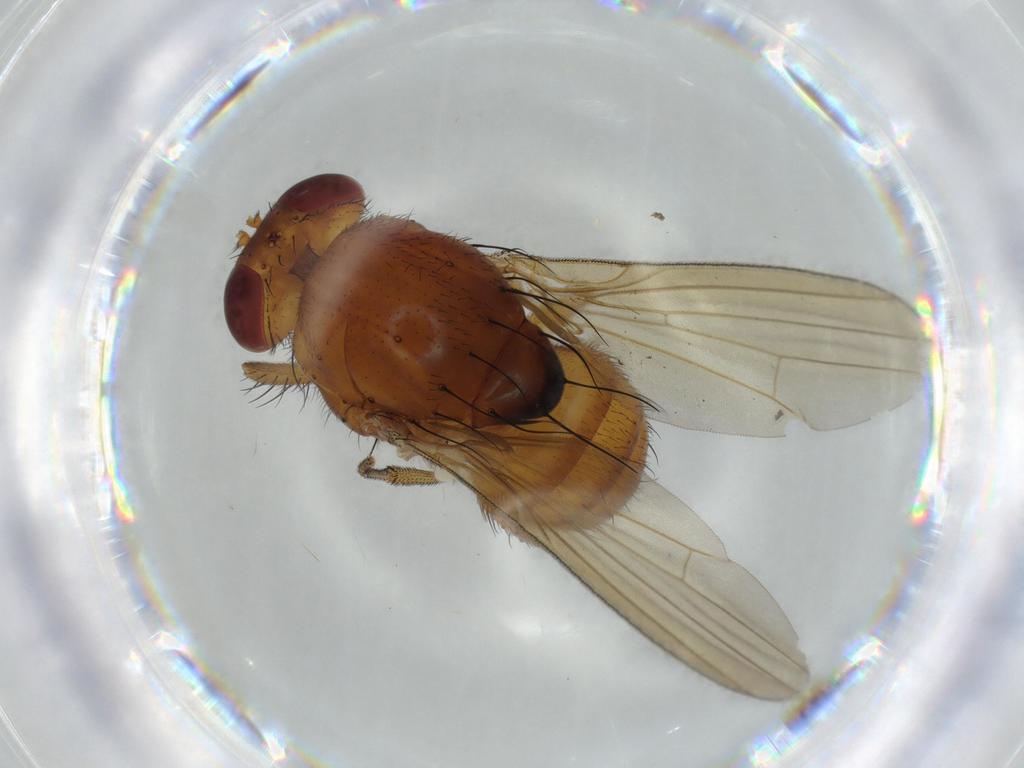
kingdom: Animalia
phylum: Arthropoda
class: Insecta
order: Diptera
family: Lauxaniidae
